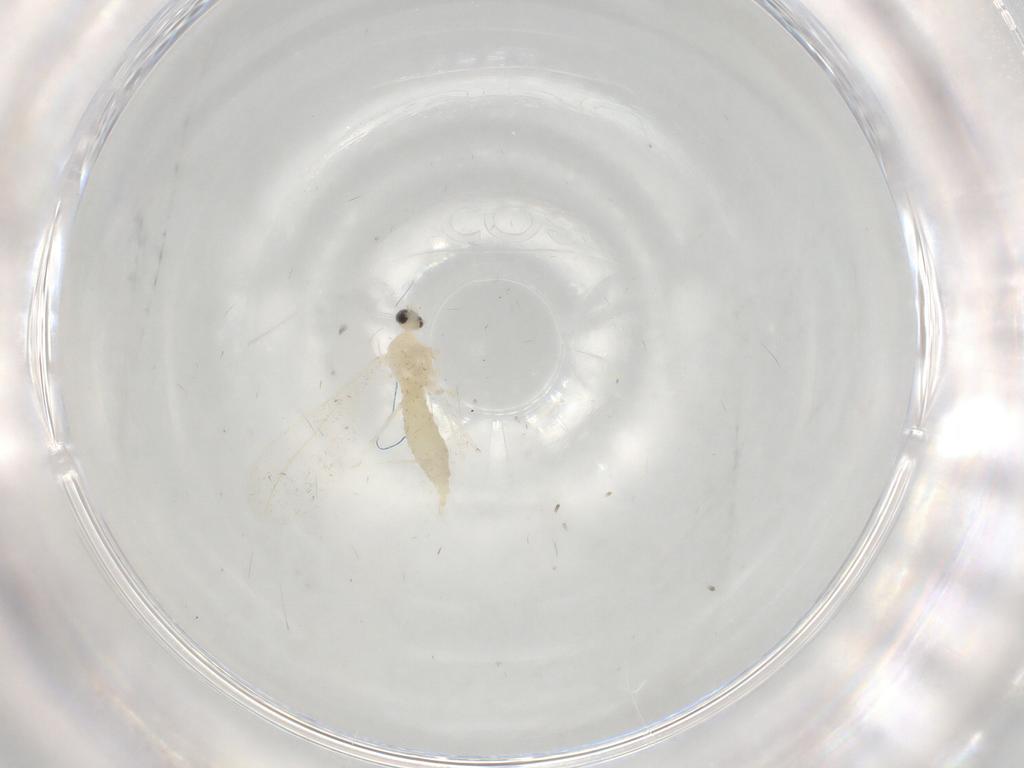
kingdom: Animalia
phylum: Arthropoda
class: Insecta
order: Diptera
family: Cecidomyiidae
